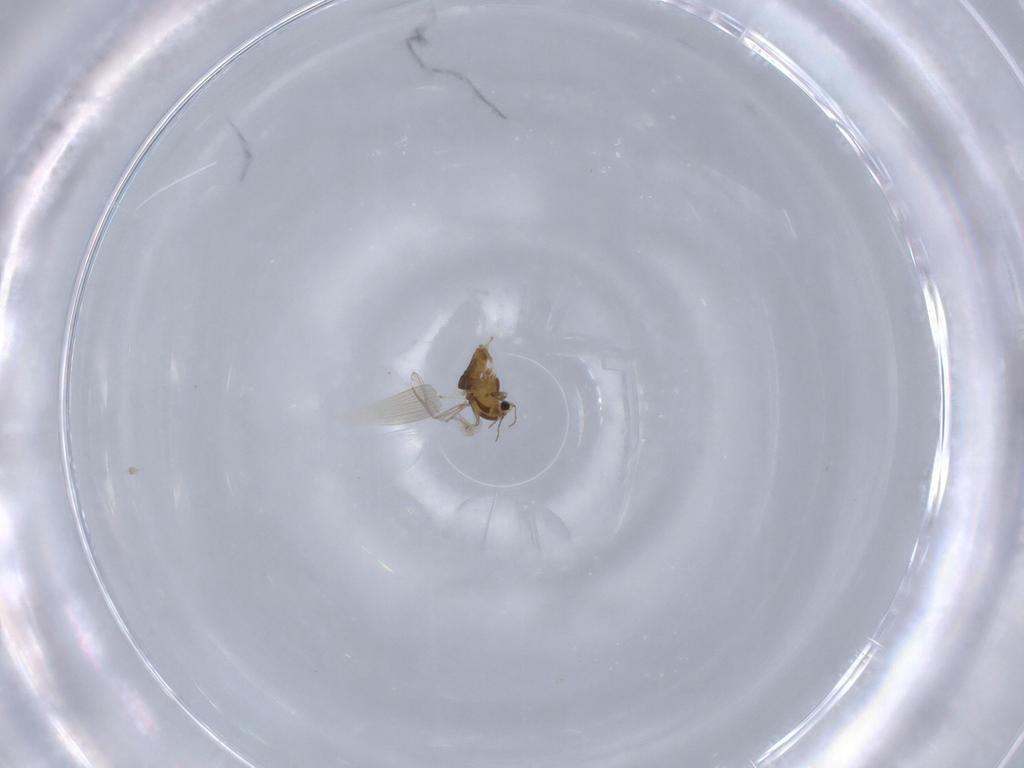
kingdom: Animalia
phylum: Arthropoda
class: Insecta
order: Diptera
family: Chironomidae
